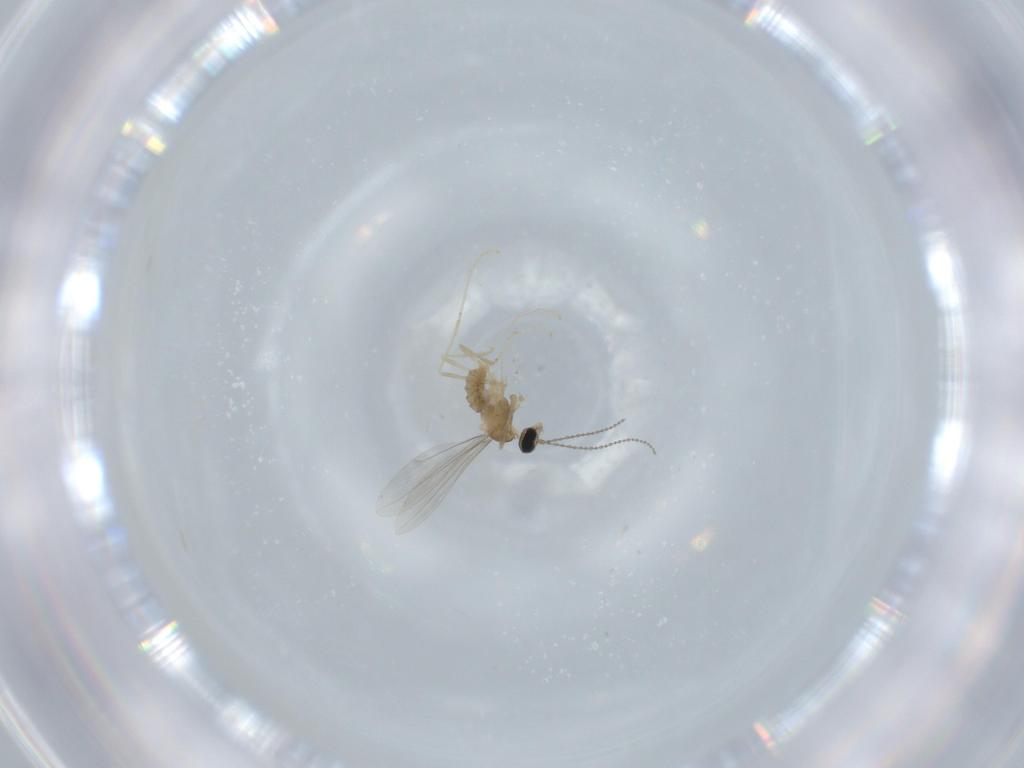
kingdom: Animalia
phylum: Arthropoda
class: Insecta
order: Diptera
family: Cecidomyiidae
